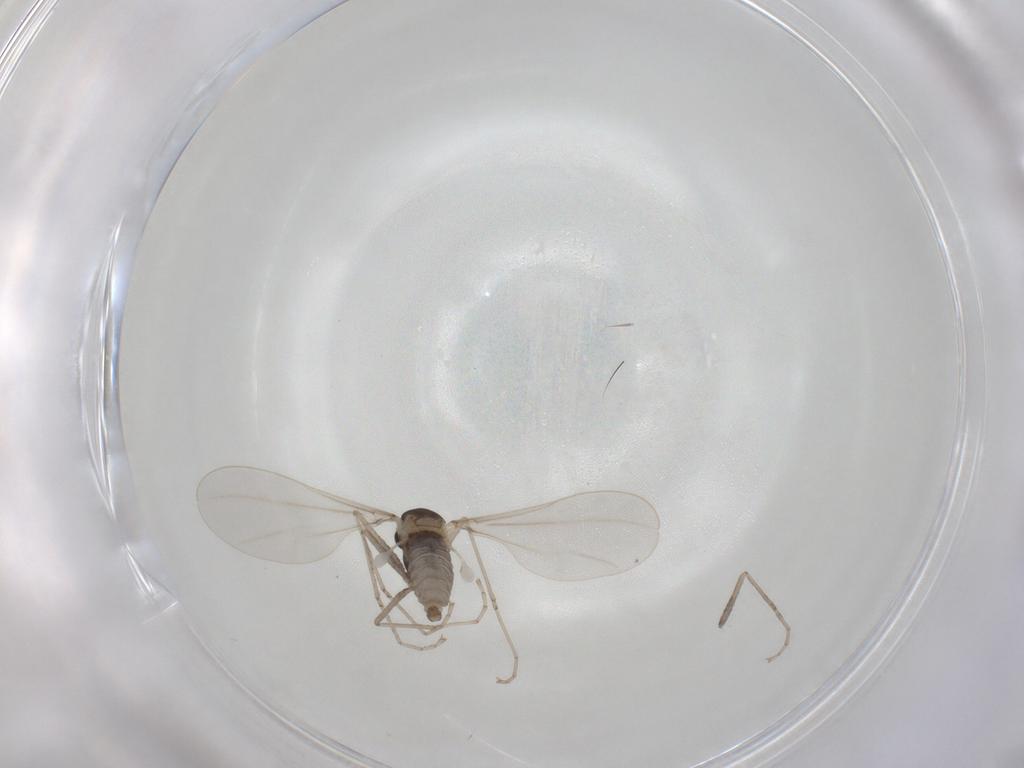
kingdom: Animalia
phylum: Arthropoda
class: Insecta
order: Diptera
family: Cecidomyiidae
